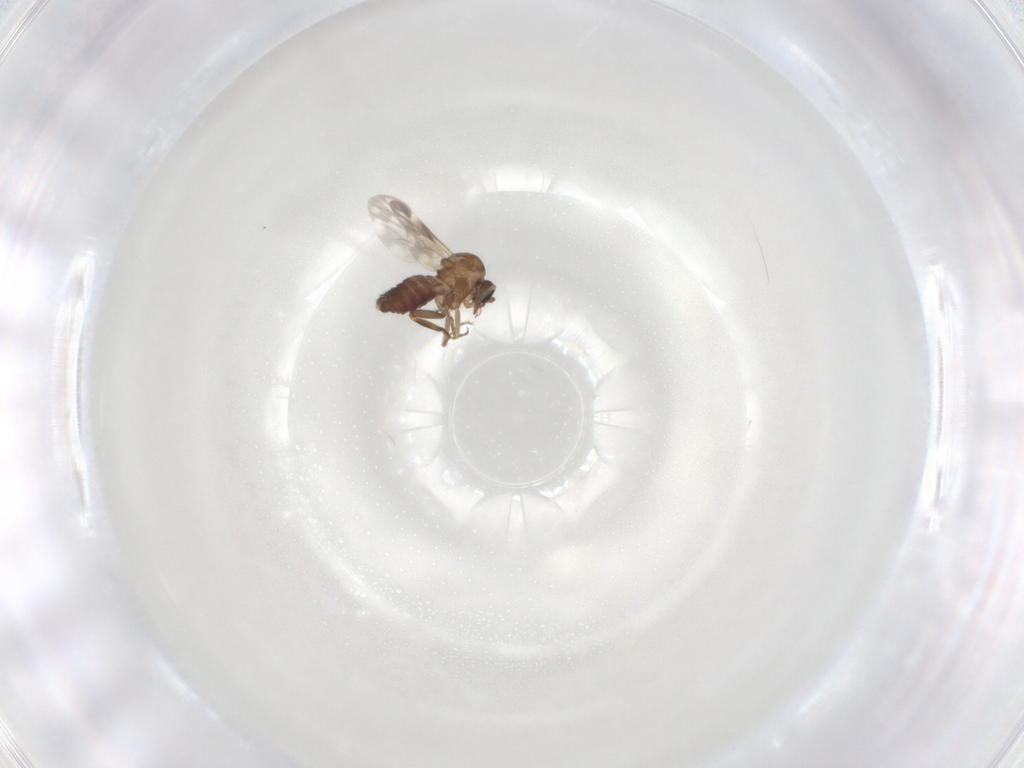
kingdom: Animalia
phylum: Arthropoda
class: Insecta
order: Diptera
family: Ceratopogonidae
